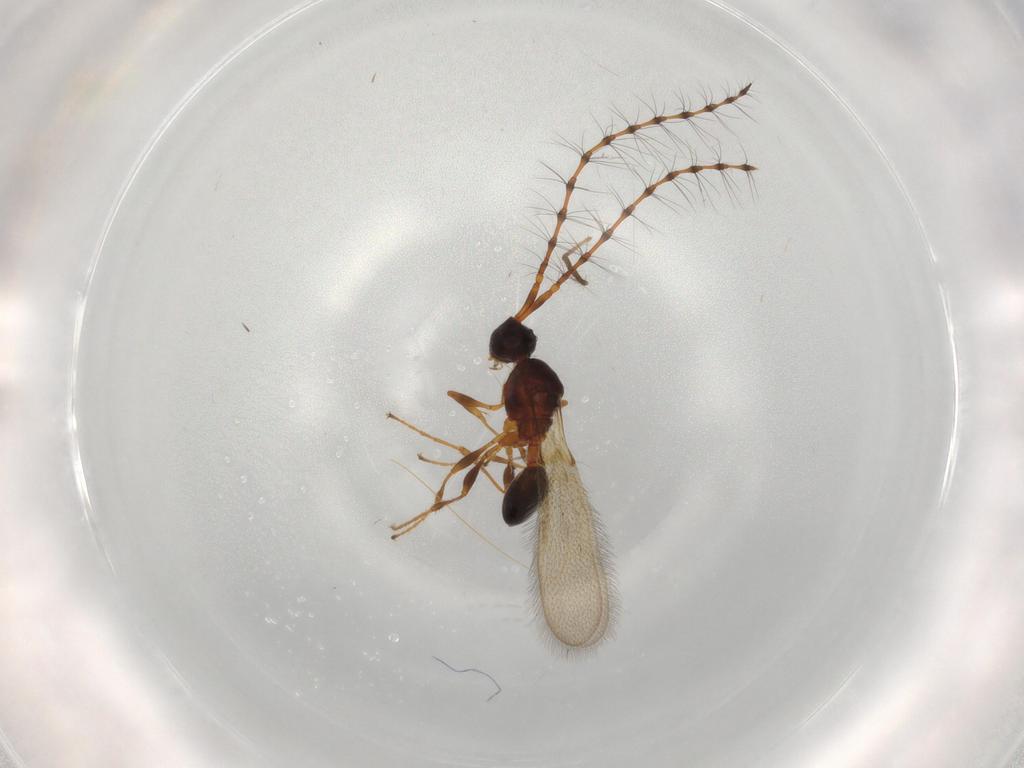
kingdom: Animalia
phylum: Arthropoda
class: Insecta
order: Hymenoptera
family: Diapriidae
